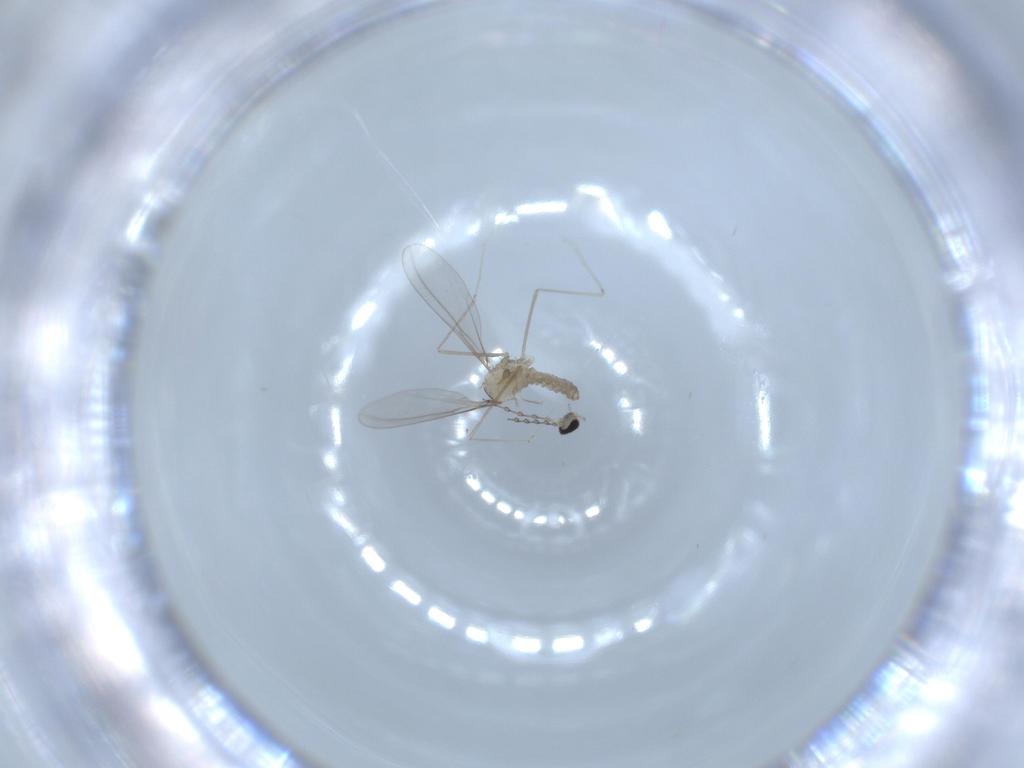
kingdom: Animalia
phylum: Arthropoda
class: Insecta
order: Diptera
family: Cecidomyiidae
